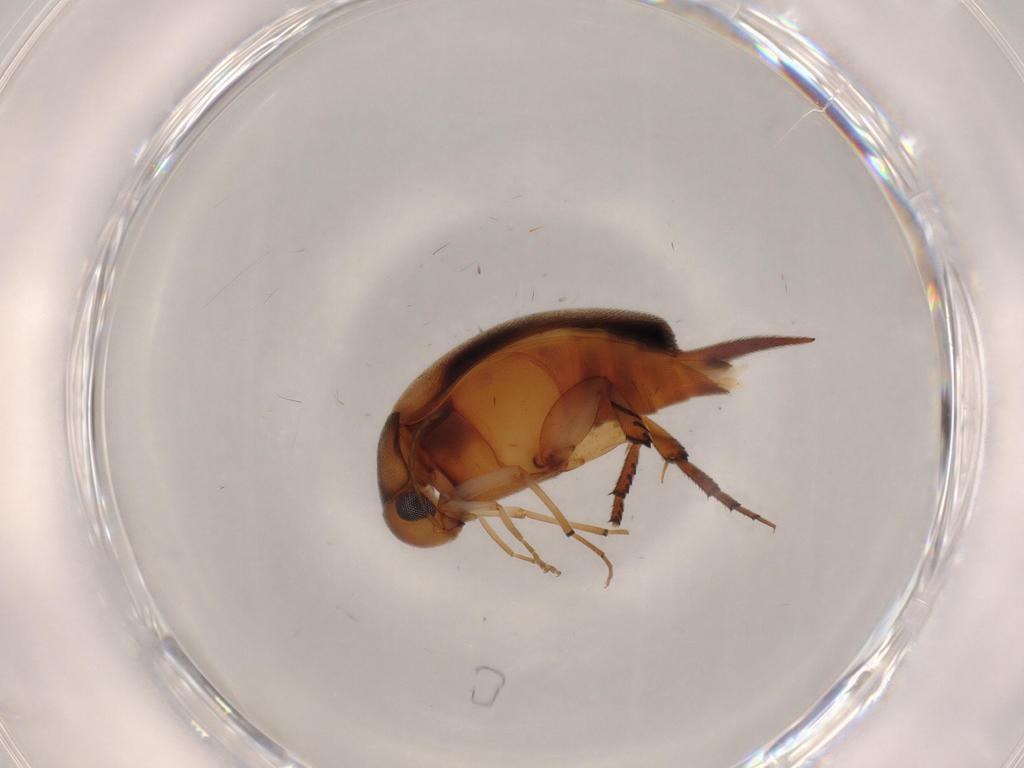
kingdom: Animalia
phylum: Arthropoda
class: Insecta
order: Coleoptera
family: Mordellidae
